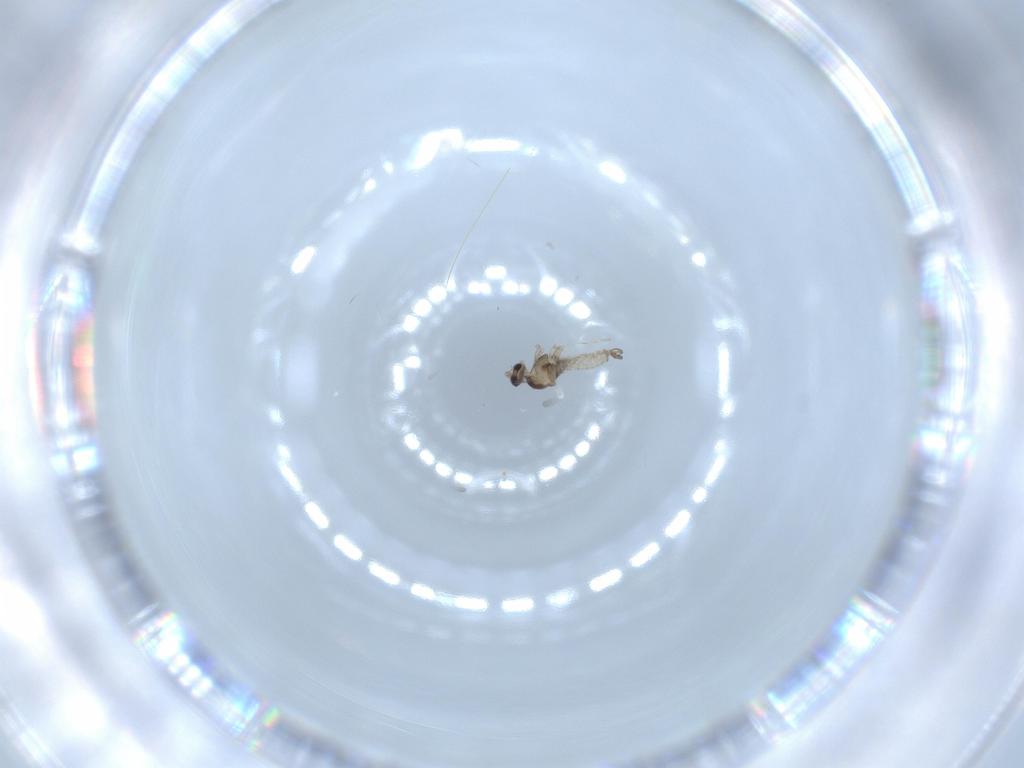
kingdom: Animalia
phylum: Arthropoda
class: Insecta
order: Diptera
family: Cecidomyiidae
